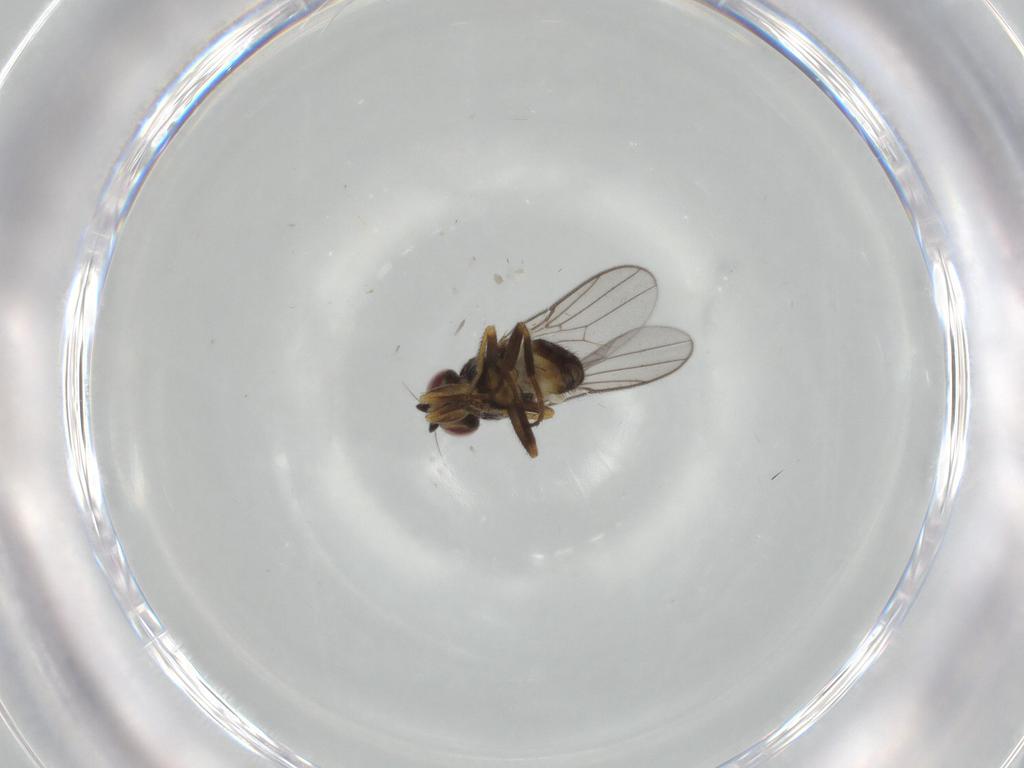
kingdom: Animalia
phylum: Arthropoda
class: Insecta
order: Diptera
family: Chloropidae
